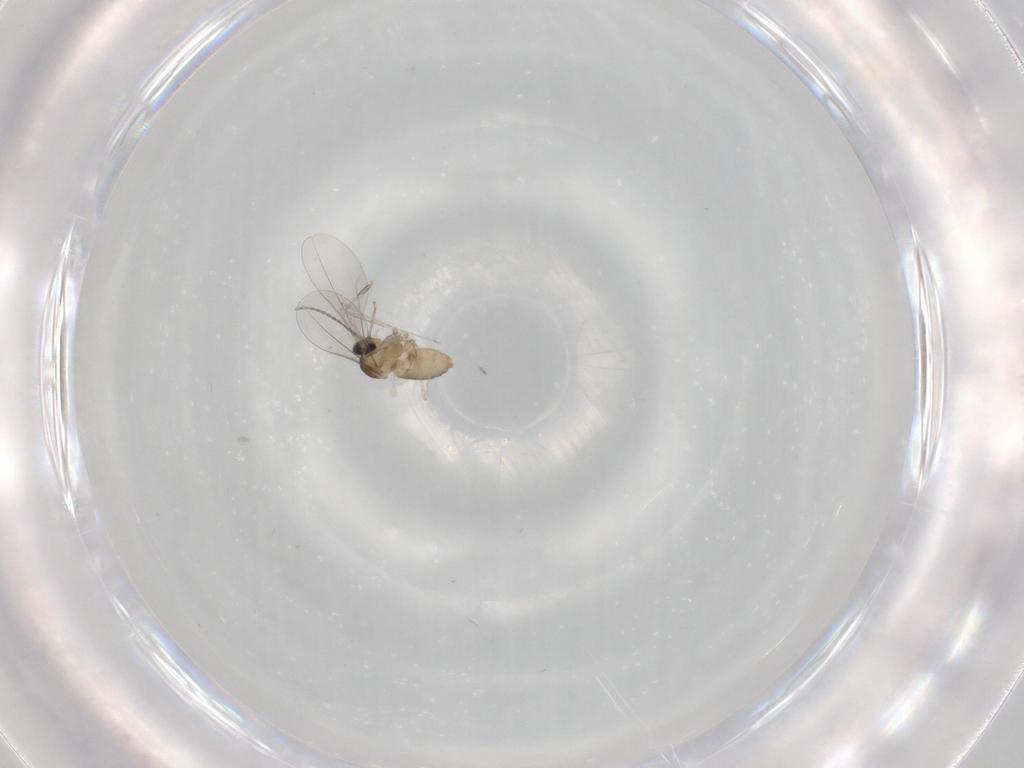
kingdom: Animalia
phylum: Arthropoda
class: Insecta
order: Diptera
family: Cecidomyiidae
